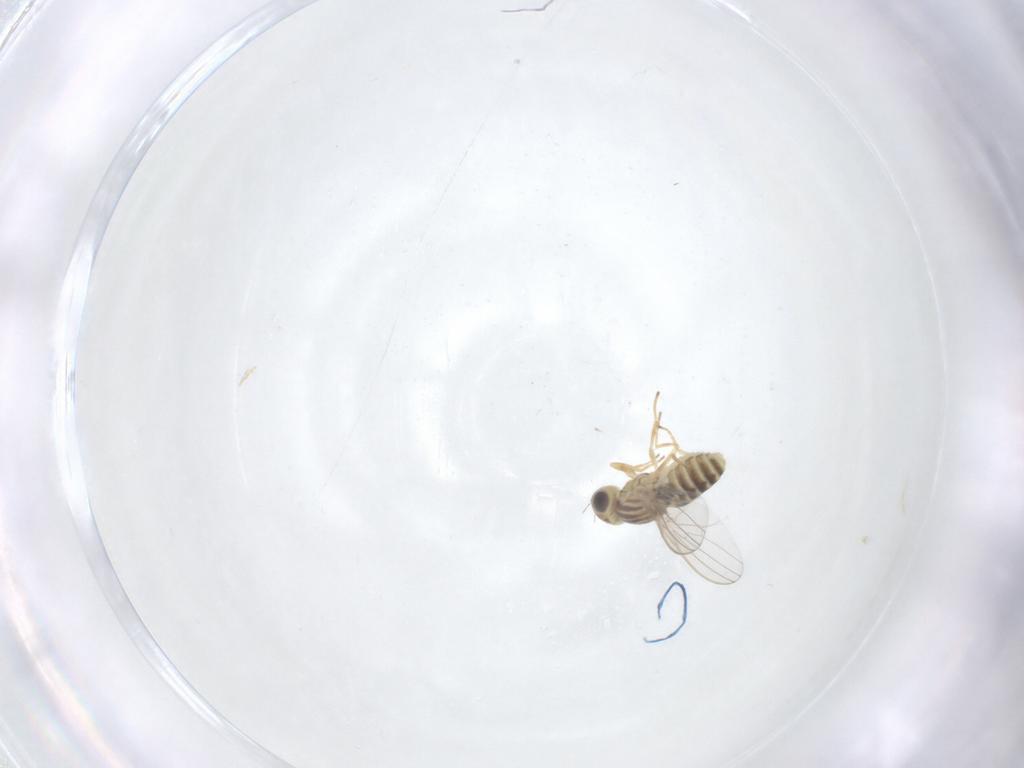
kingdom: Animalia
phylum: Arthropoda
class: Insecta
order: Diptera
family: Chyromyidae
